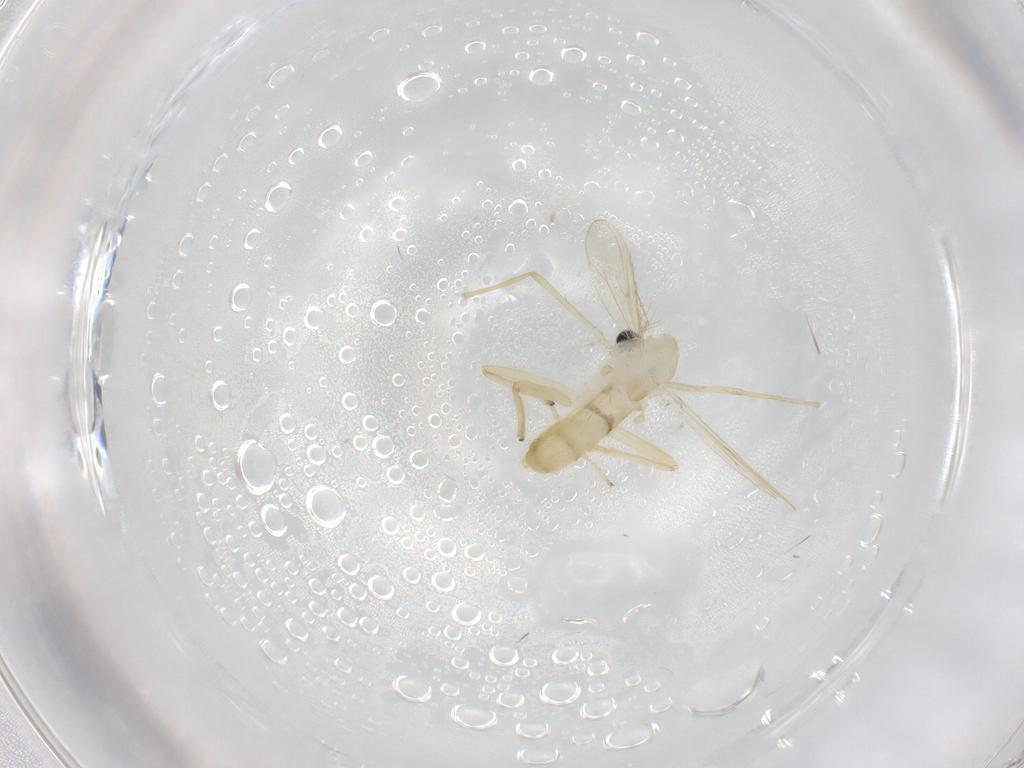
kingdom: Animalia
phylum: Arthropoda
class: Insecta
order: Diptera
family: Chironomidae
